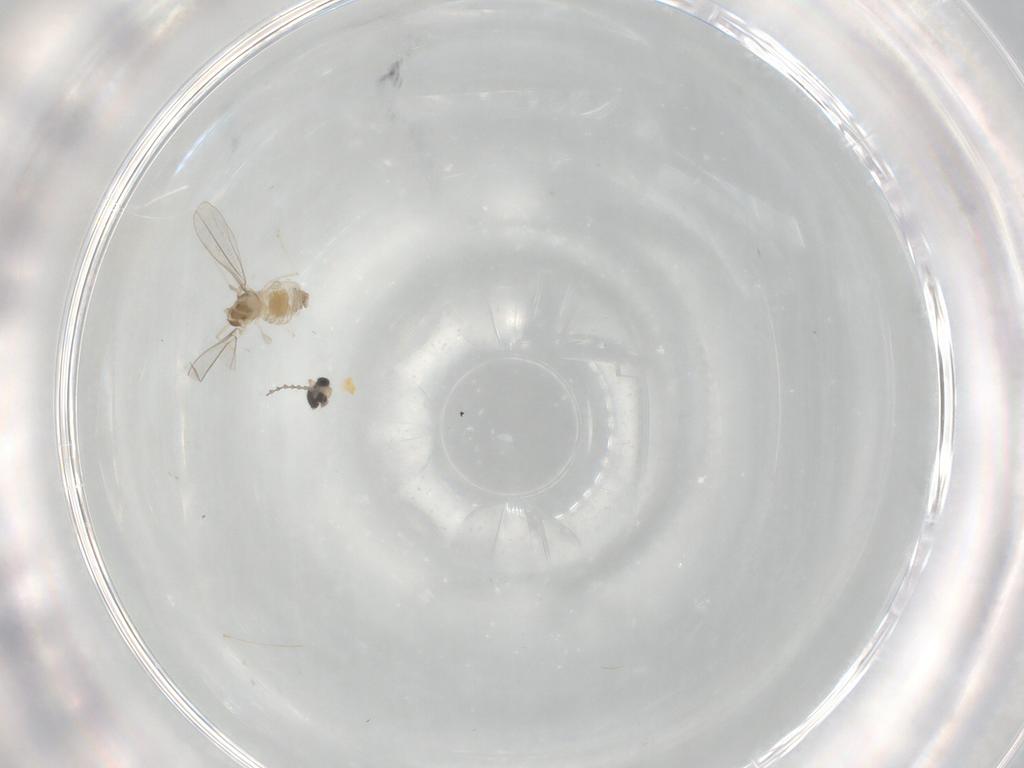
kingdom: Animalia
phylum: Arthropoda
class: Insecta
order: Diptera
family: Cecidomyiidae
